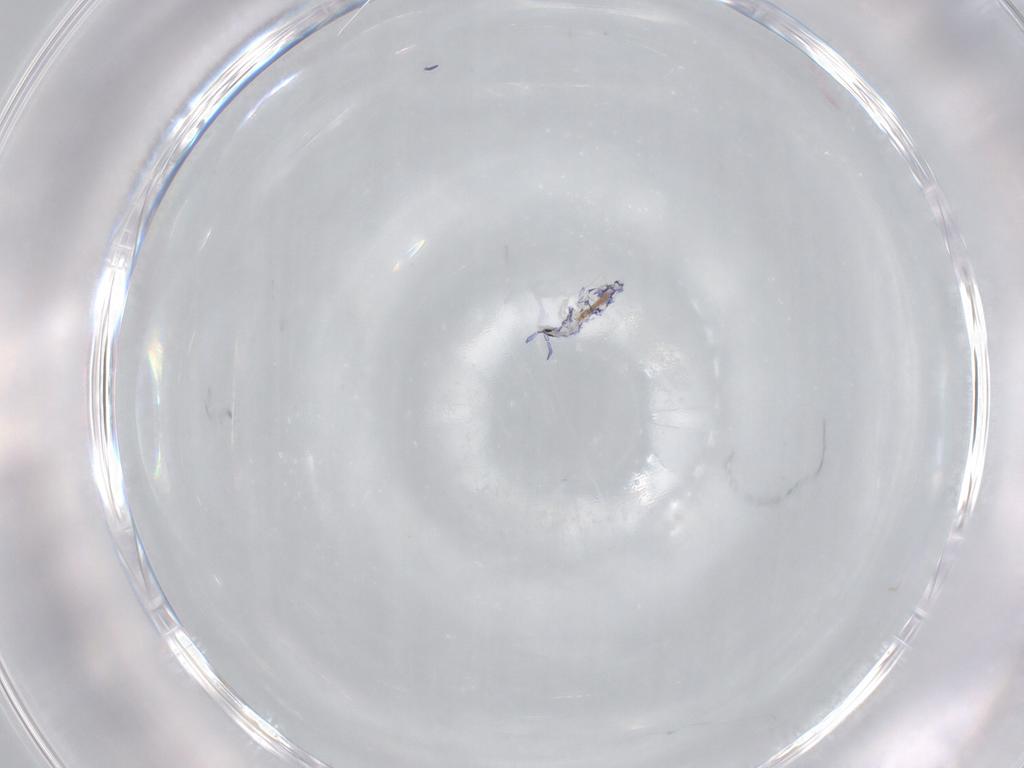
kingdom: Animalia
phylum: Arthropoda
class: Collembola
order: Entomobryomorpha
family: Entomobryidae
